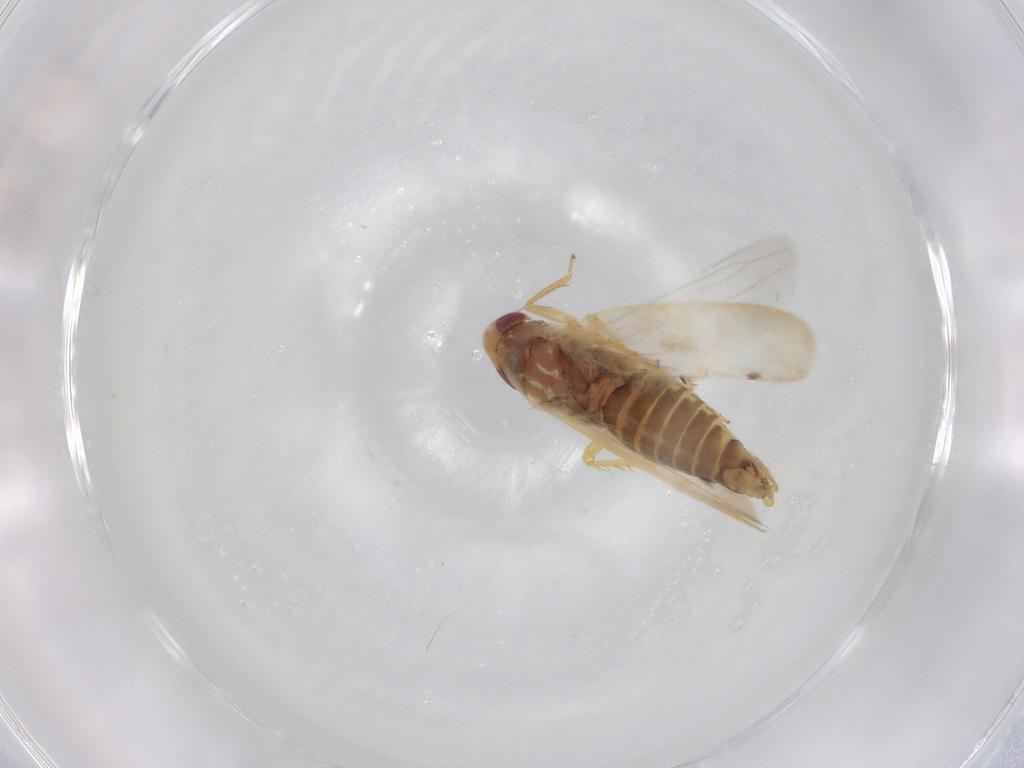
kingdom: Animalia
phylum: Arthropoda
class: Insecta
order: Hemiptera
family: Cicadellidae
